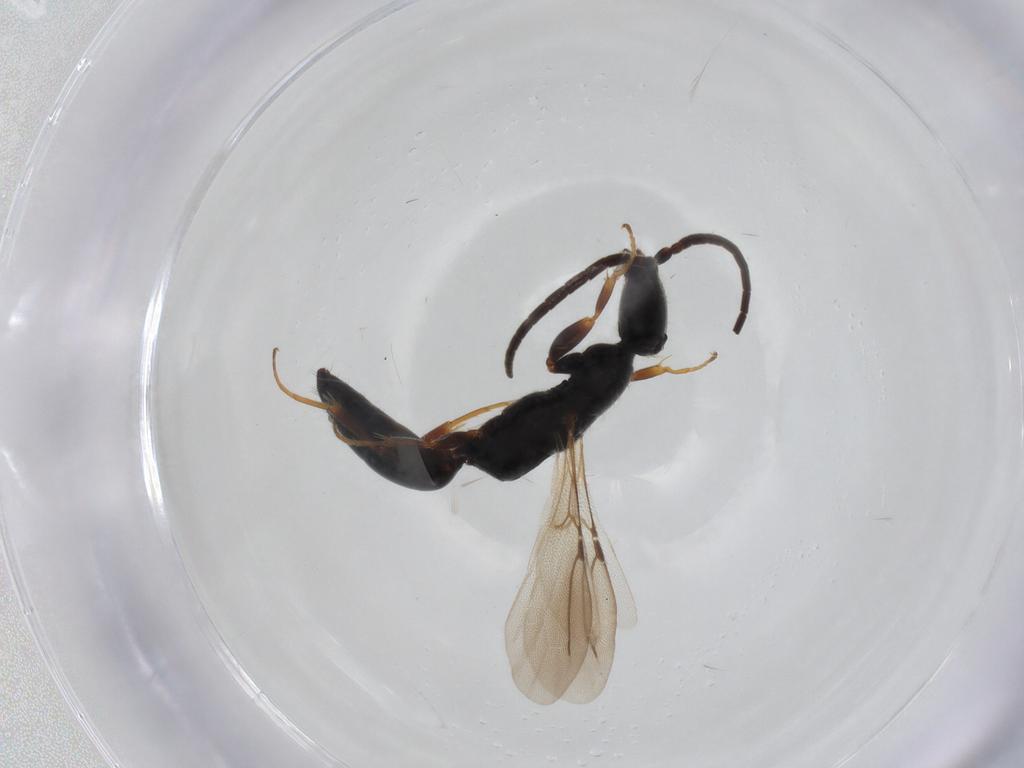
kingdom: Animalia
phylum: Arthropoda
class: Insecta
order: Hymenoptera
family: Bethylidae
